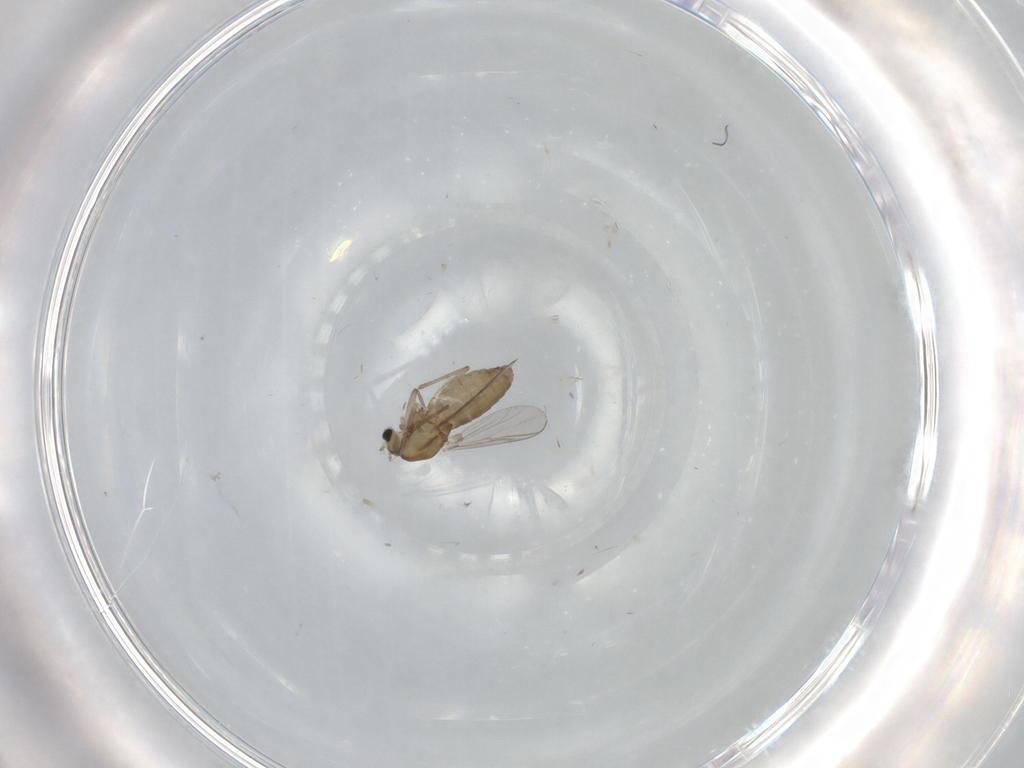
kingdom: Animalia
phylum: Arthropoda
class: Insecta
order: Diptera
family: Chironomidae
